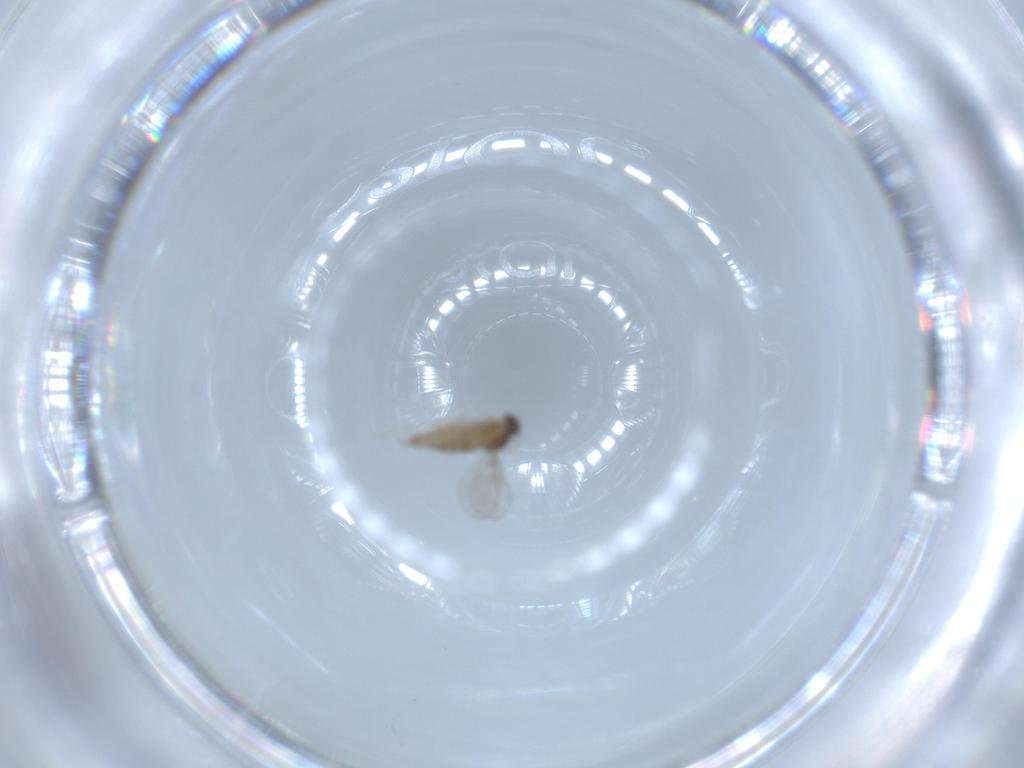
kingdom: Animalia
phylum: Arthropoda
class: Insecta
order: Diptera
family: Cecidomyiidae
